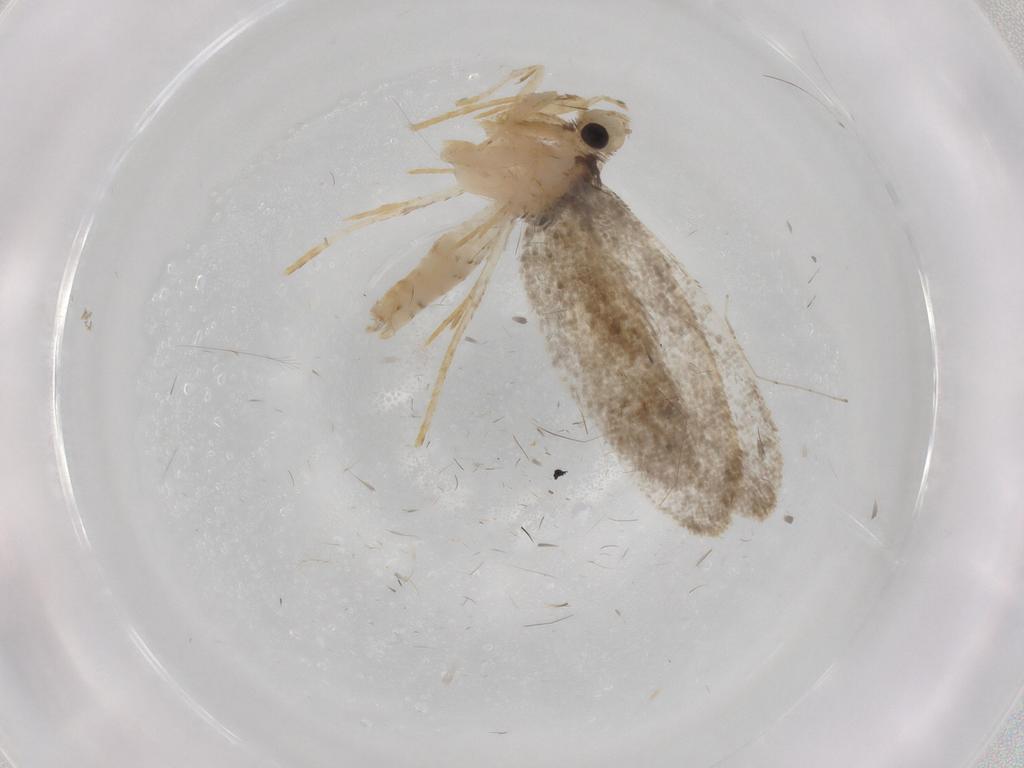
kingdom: Animalia
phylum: Arthropoda
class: Insecta
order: Lepidoptera
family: Psychidae
